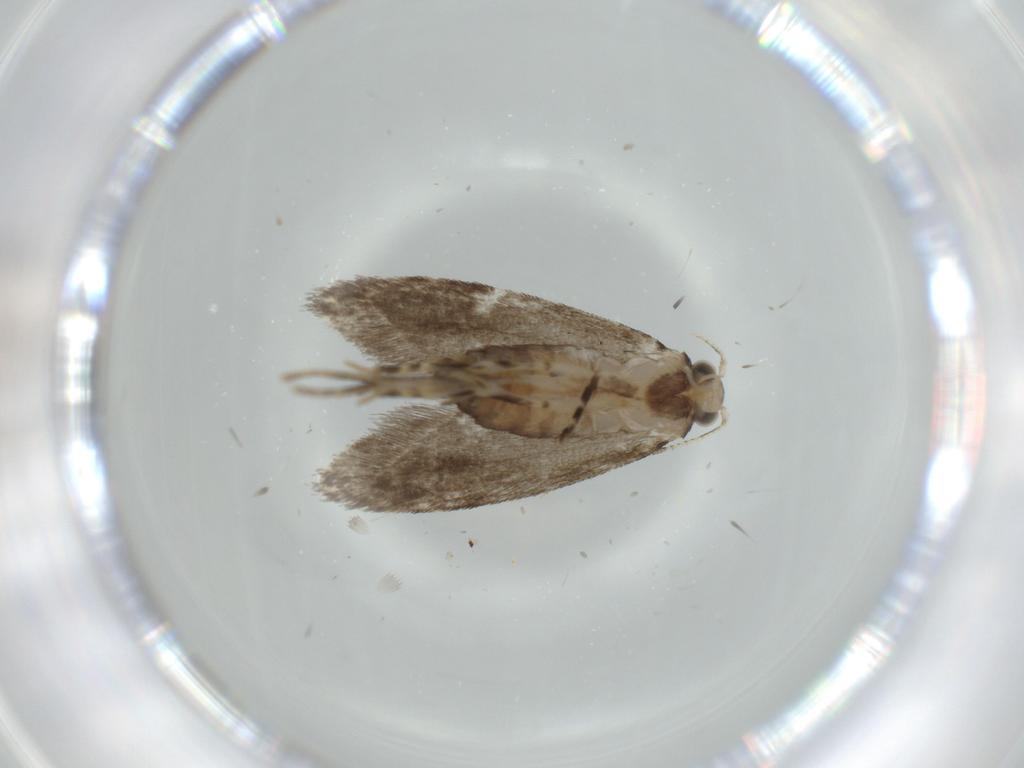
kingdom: Animalia
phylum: Arthropoda
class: Insecta
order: Lepidoptera
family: Tineidae
